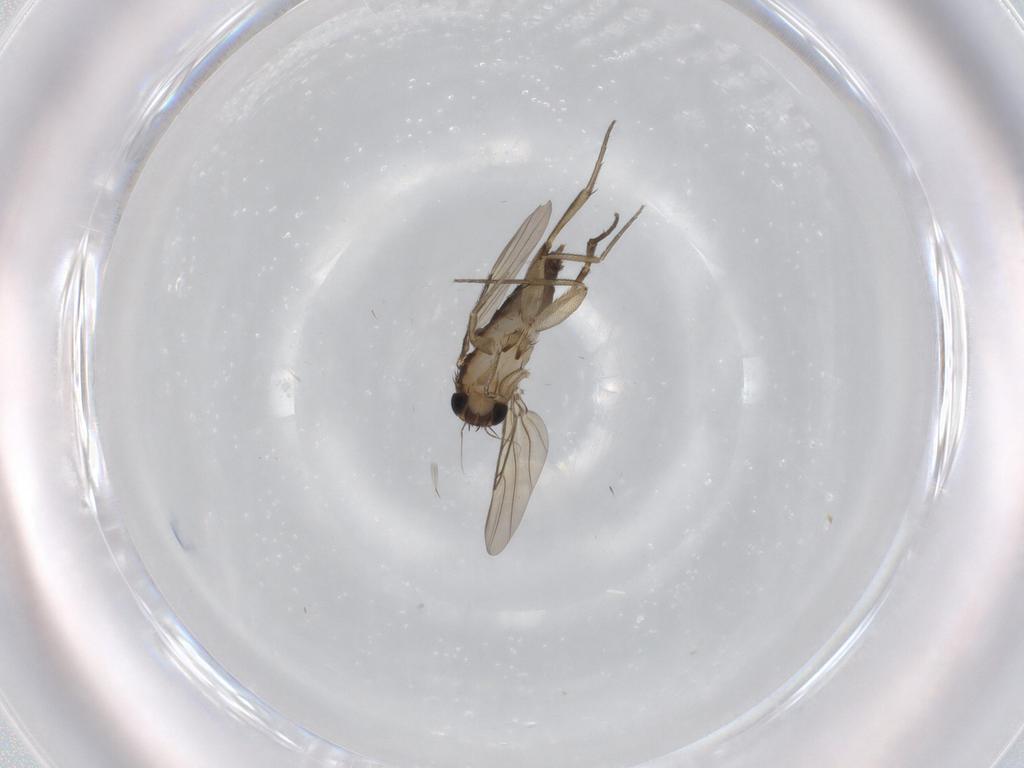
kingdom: Animalia
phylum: Arthropoda
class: Insecta
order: Diptera
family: Phoridae
